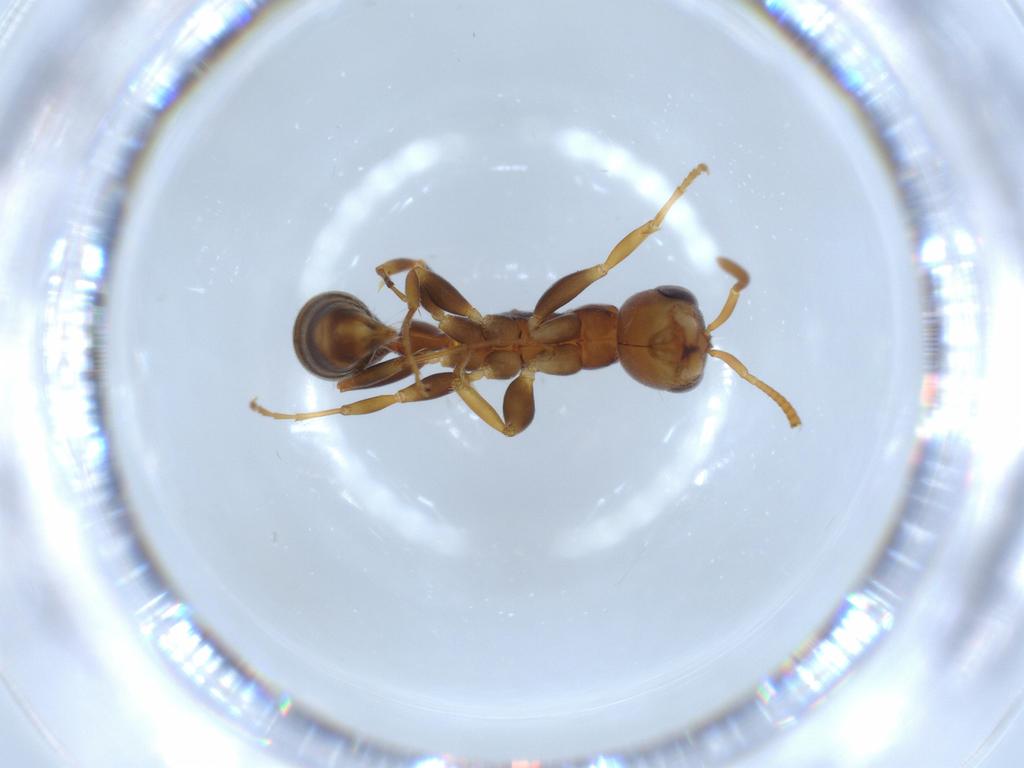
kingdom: Animalia
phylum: Arthropoda
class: Insecta
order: Hymenoptera
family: Formicidae
